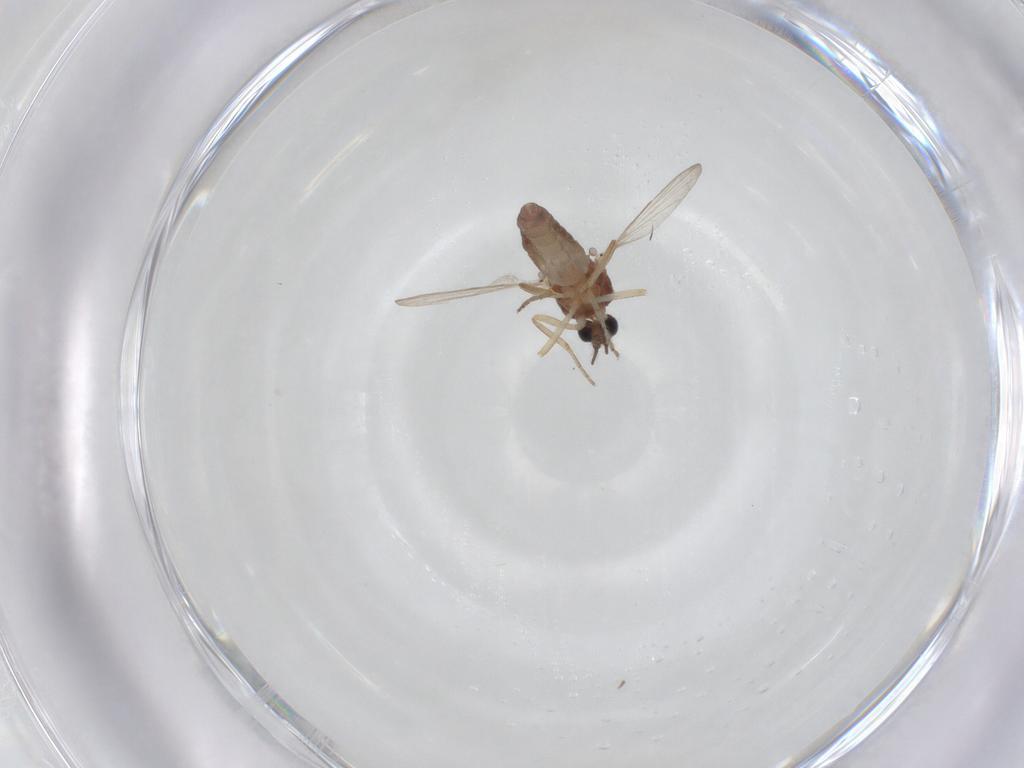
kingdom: Animalia
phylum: Arthropoda
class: Insecta
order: Diptera
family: Ceratopogonidae
